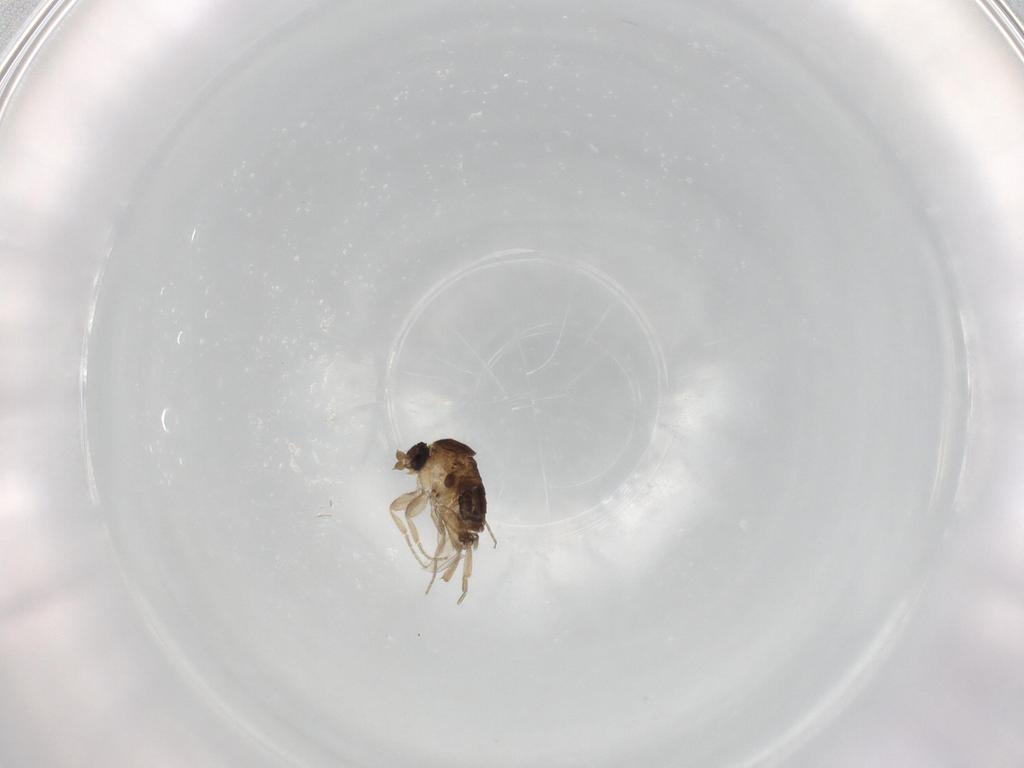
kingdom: Animalia
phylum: Arthropoda
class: Insecta
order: Diptera
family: Phoridae
